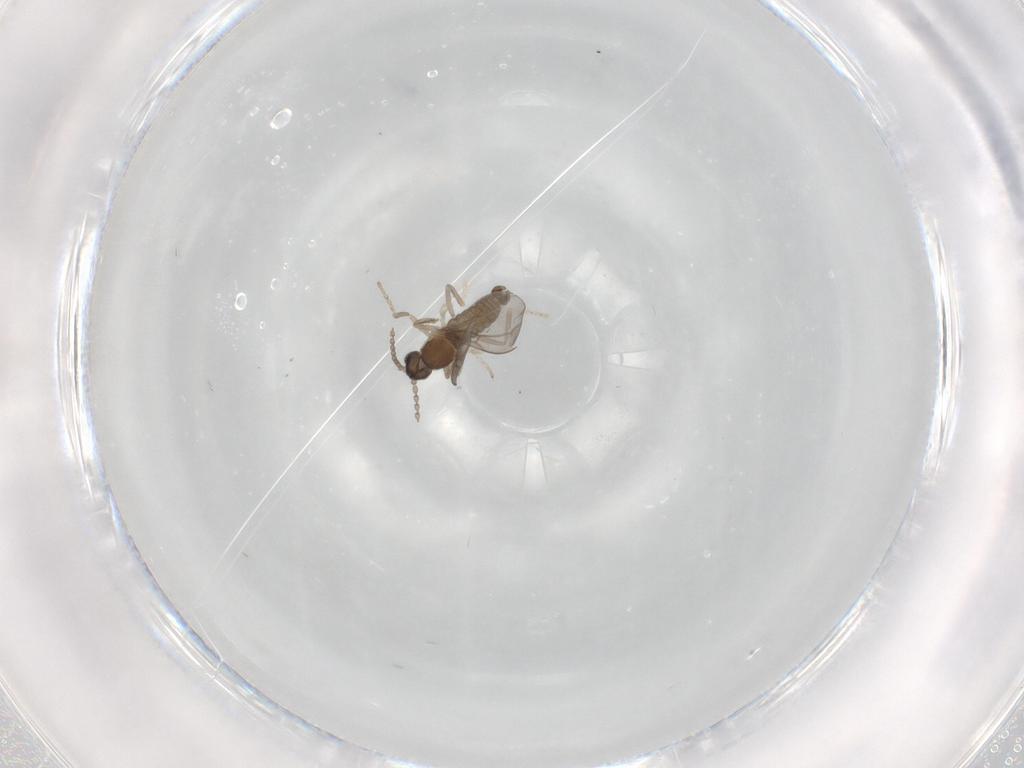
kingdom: Animalia
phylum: Arthropoda
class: Insecta
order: Diptera
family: Cecidomyiidae
